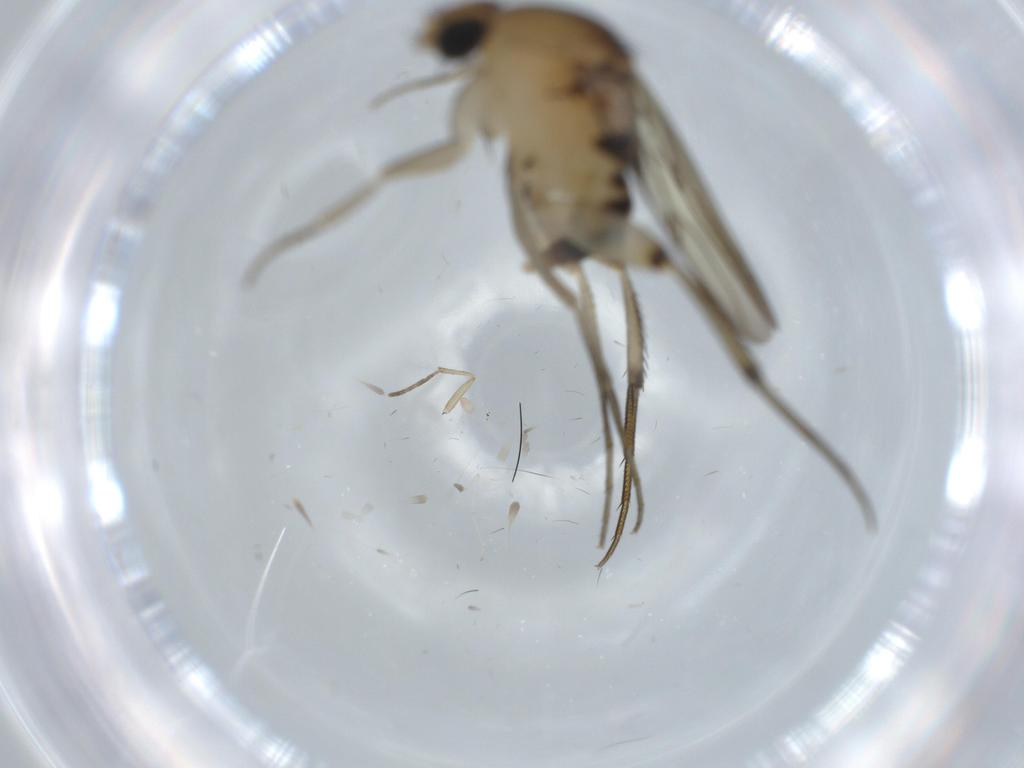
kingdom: Animalia
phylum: Arthropoda
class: Insecta
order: Diptera
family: Phoridae
